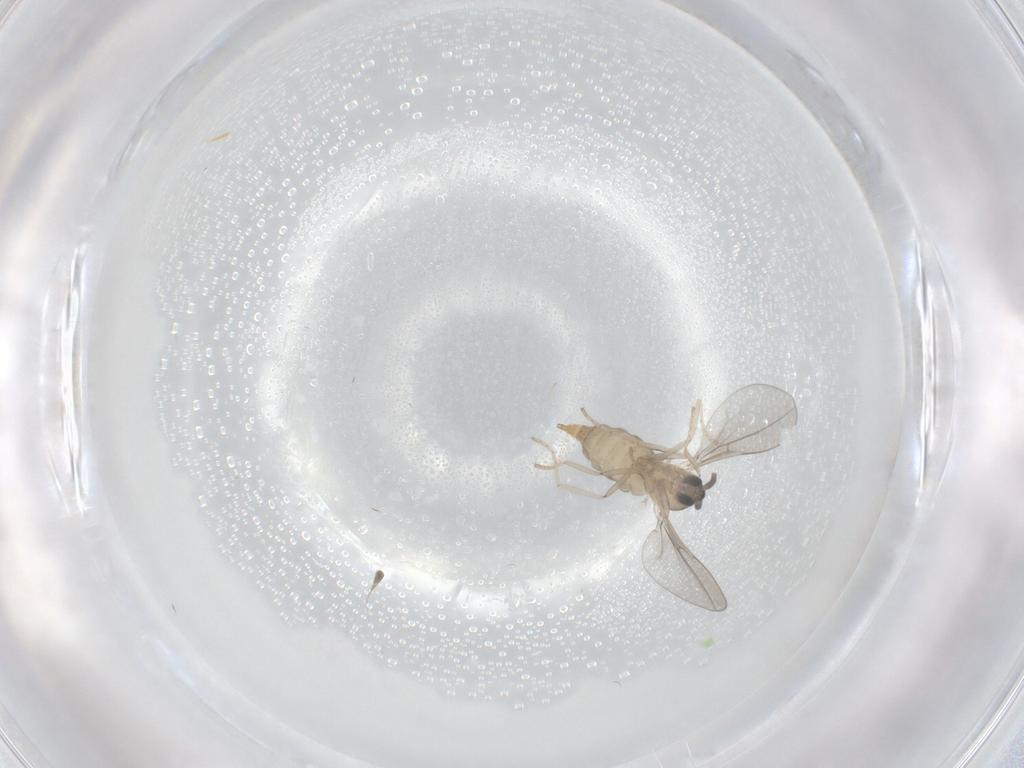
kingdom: Animalia
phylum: Arthropoda
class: Insecta
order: Diptera
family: Cecidomyiidae
